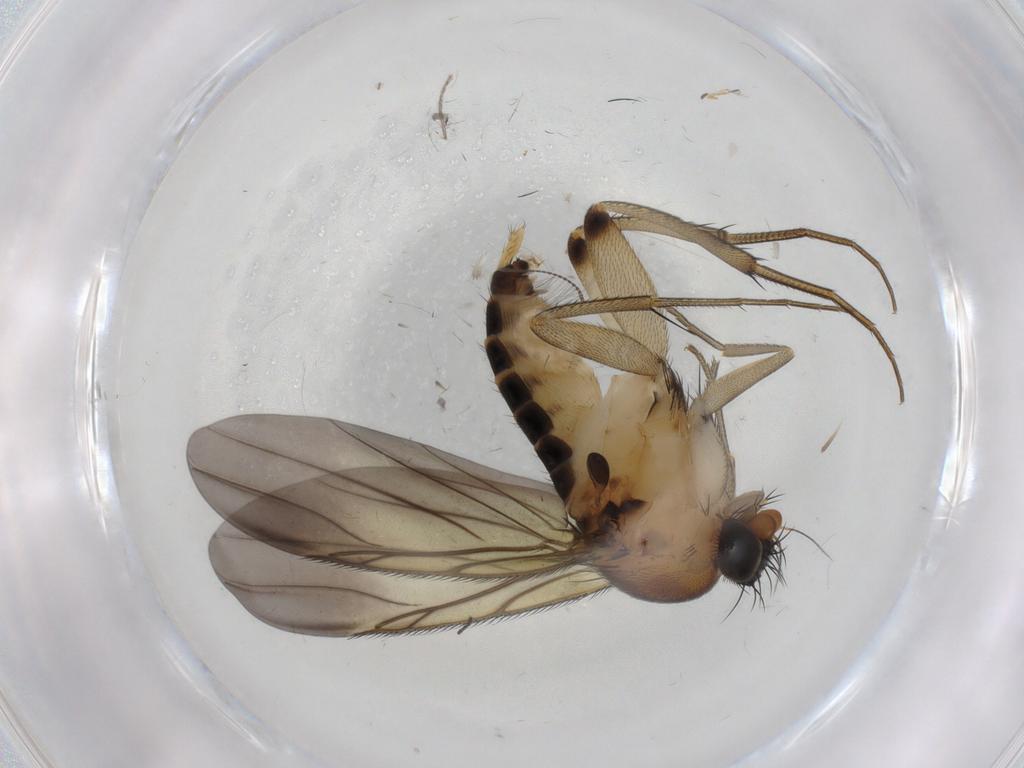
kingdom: Animalia
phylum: Arthropoda
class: Insecta
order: Diptera
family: Phoridae
